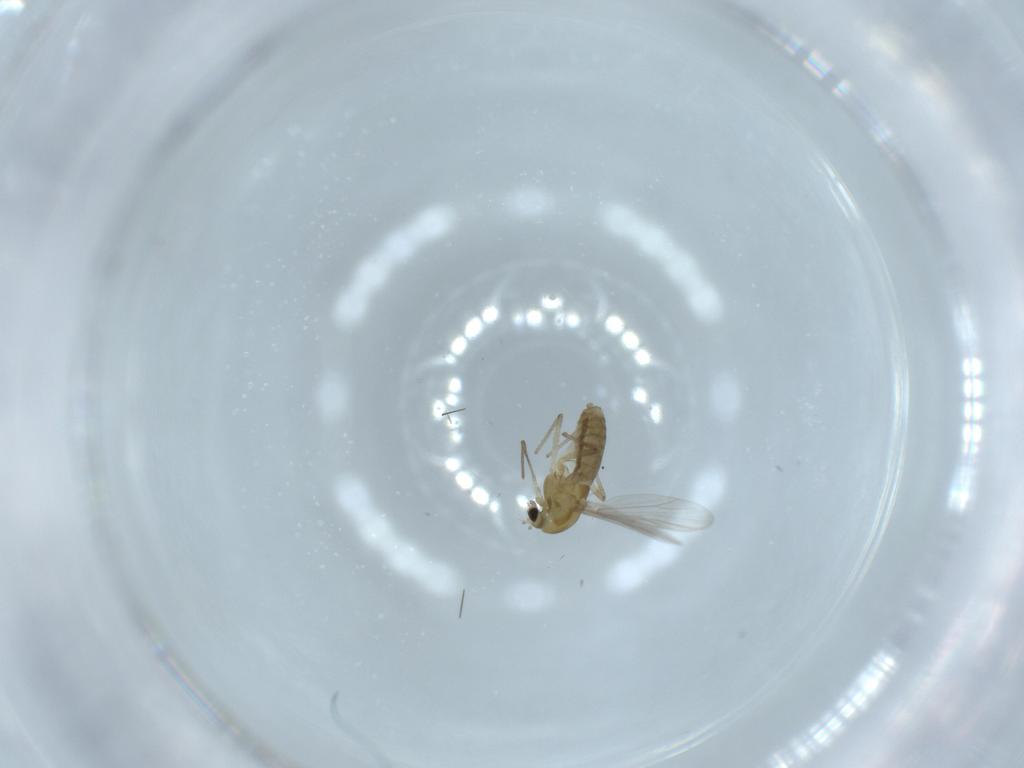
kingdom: Animalia
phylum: Arthropoda
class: Insecta
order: Diptera
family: Chironomidae
